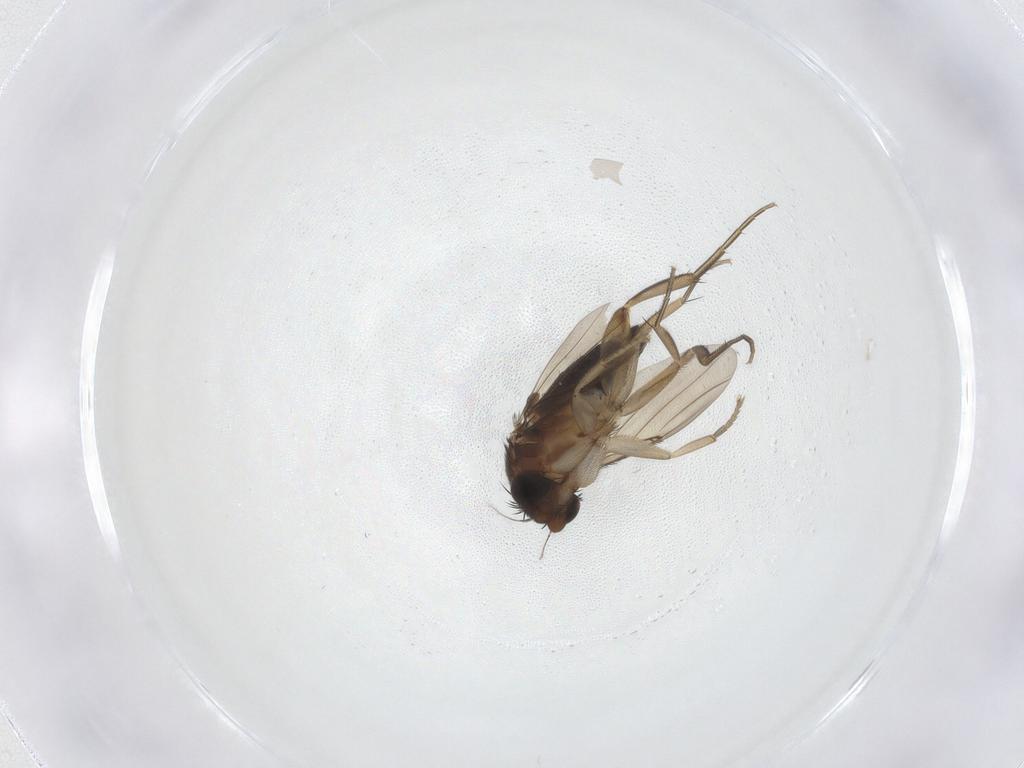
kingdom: Animalia
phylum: Arthropoda
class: Insecta
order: Diptera
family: Phoridae
